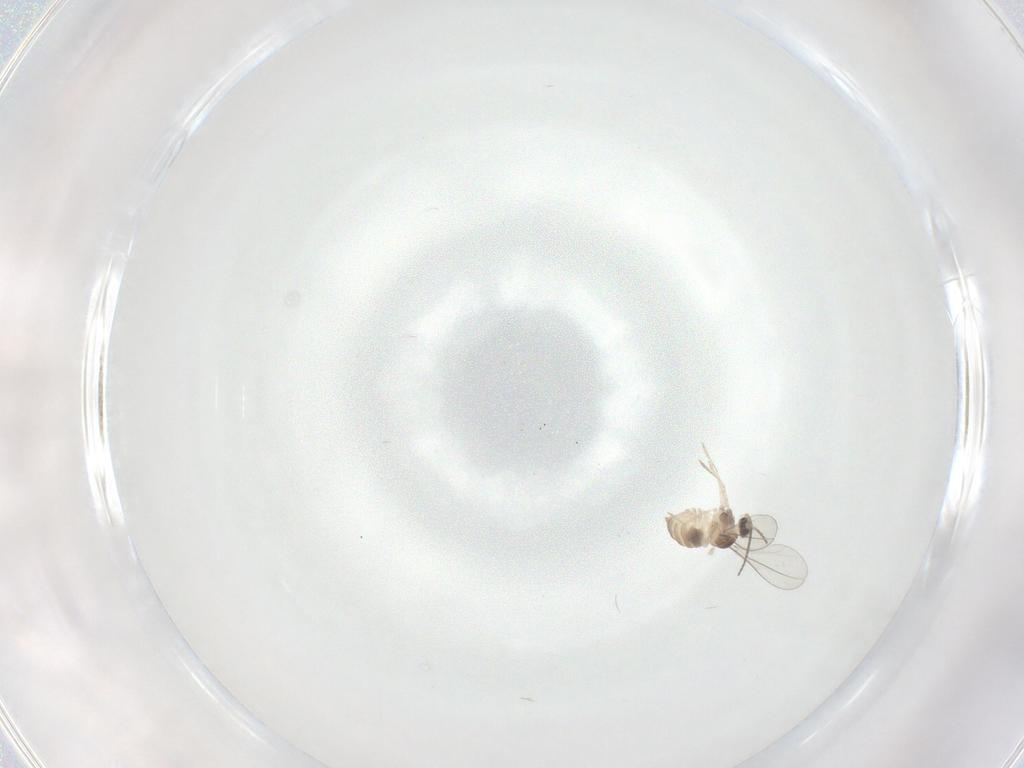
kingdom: Animalia
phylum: Arthropoda
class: Insecta
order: Diptera
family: Cecidomyiidae
